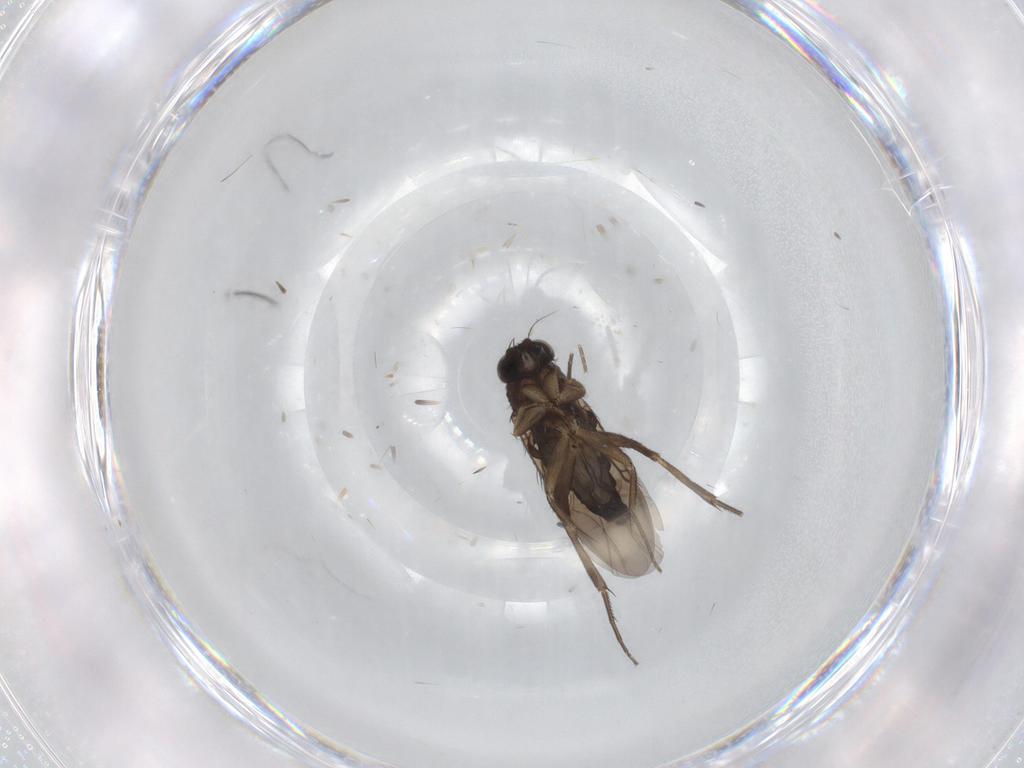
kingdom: Animalia
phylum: Arthropoda
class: Insecta
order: Diptera
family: Phoridae
